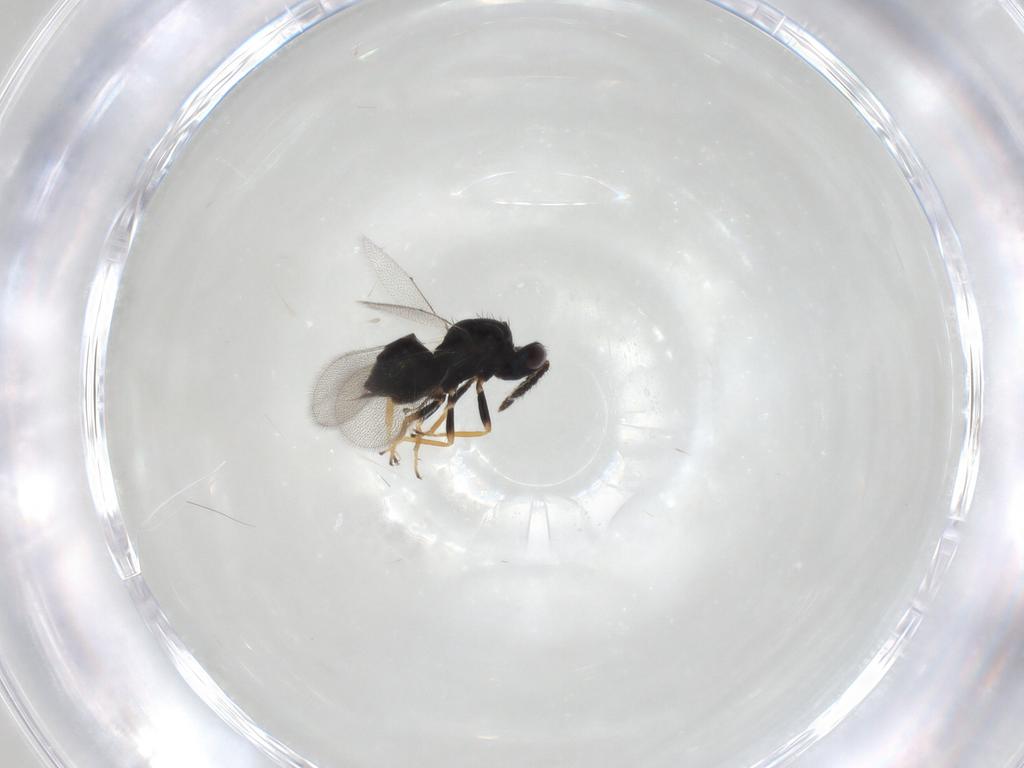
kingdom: Animalia
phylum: Arthropoda
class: Insecta
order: Hymenoptera
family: Eulophidae
